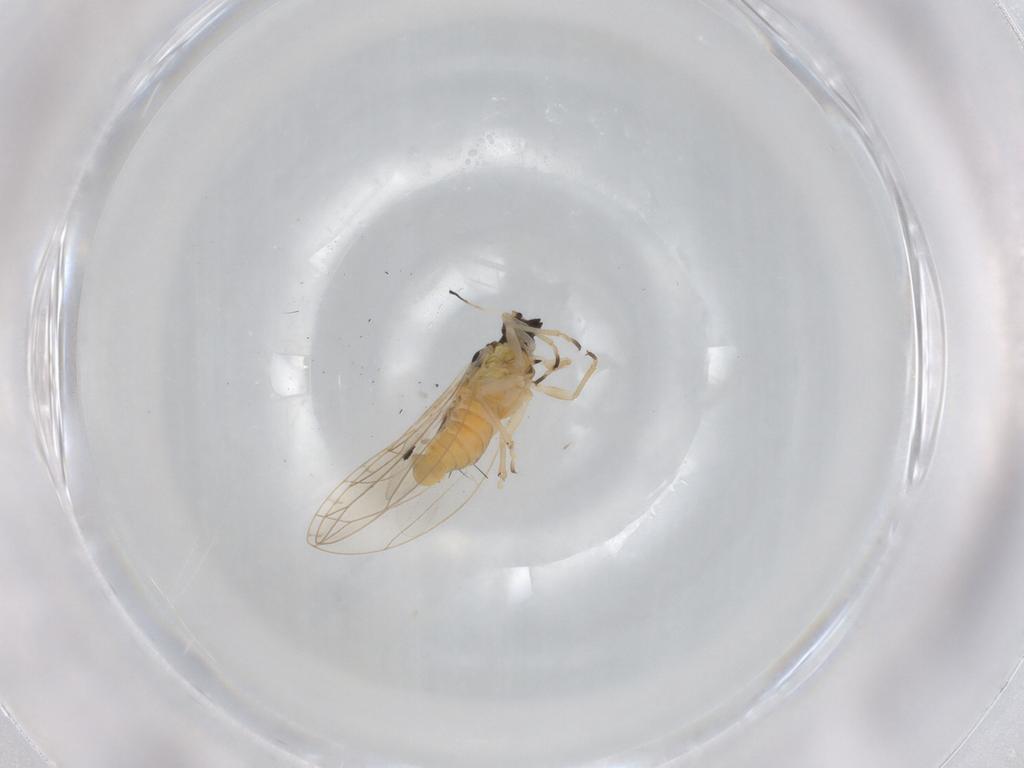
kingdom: Animalia
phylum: Arthropoda
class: Insecta
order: Hemiptera
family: Triozidae
